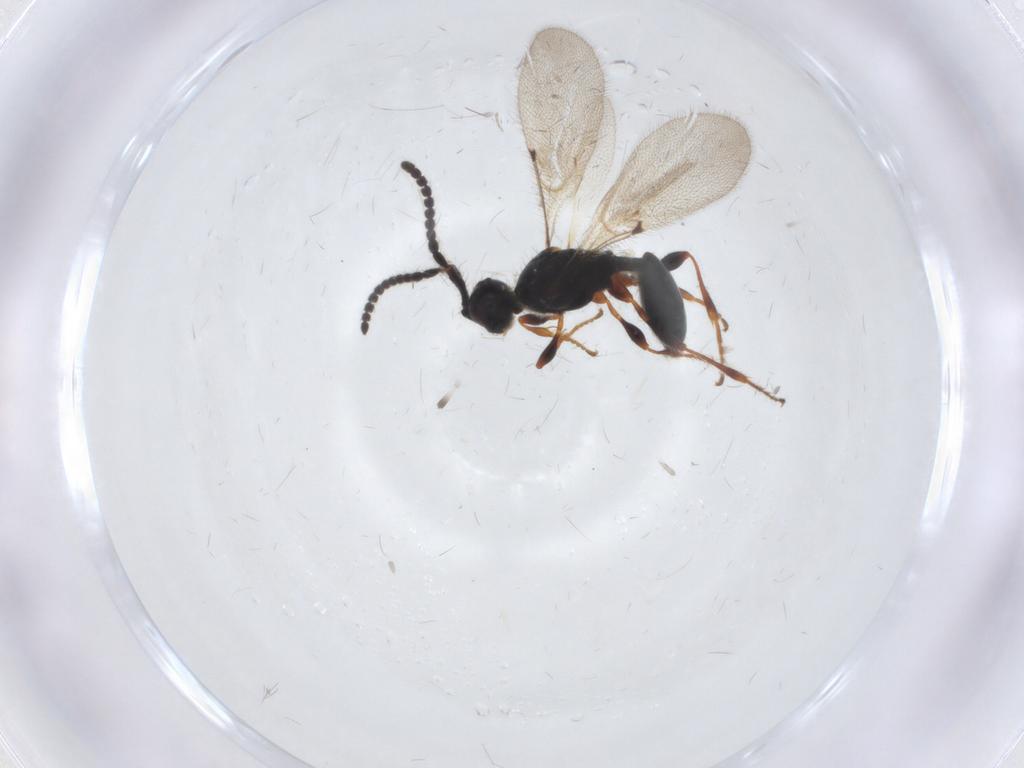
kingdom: Animalia
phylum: Arthropoda
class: Insecta
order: Hymenoptera
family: Diapriidae
